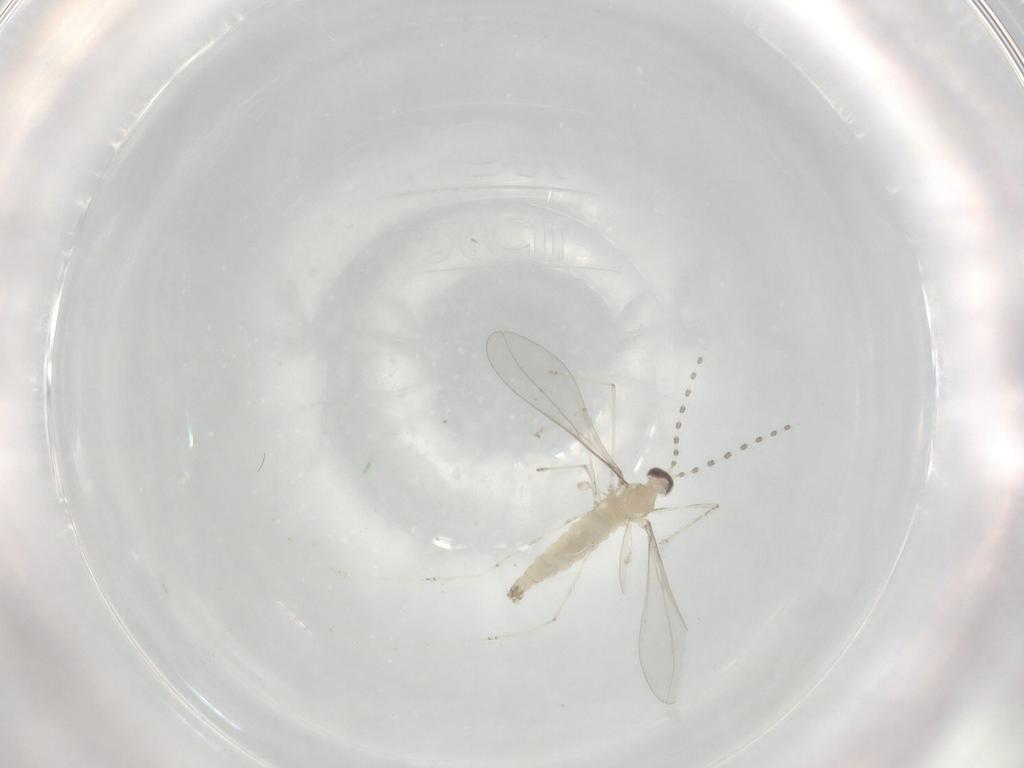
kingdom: Animalia
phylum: Arthropoda
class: Insecta
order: Diptera
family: Cecidomyiidae
